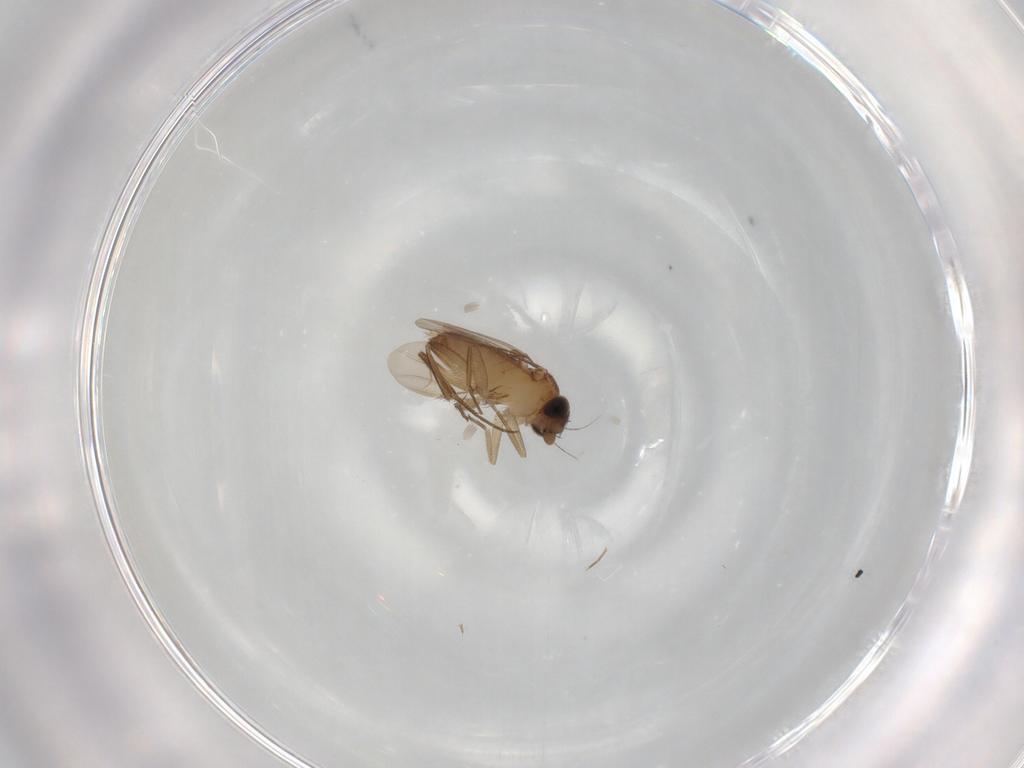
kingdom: Animalia
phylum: Arthropoda
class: Insecta
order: Diptera
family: Phoridae
